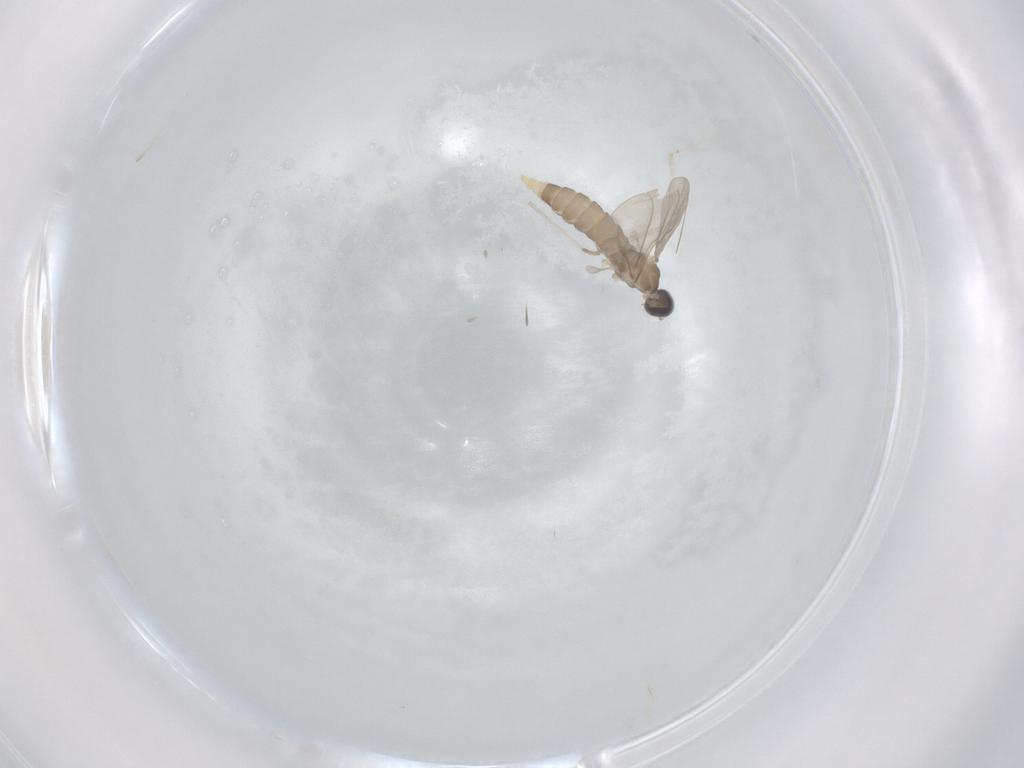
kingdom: Animalia
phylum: Arthropoda
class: Insecta
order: Diptera
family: Cecidomyiidae
